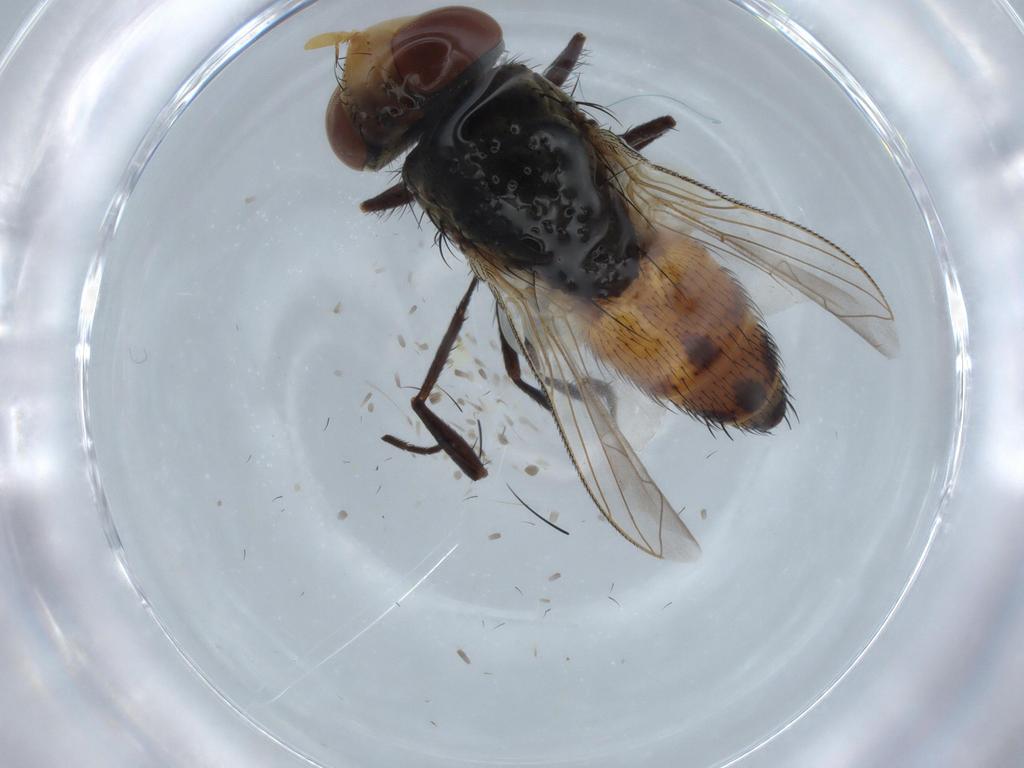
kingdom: Animalia
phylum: Arthropoda
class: Insecta
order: Diptera
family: Sarcophagidae
